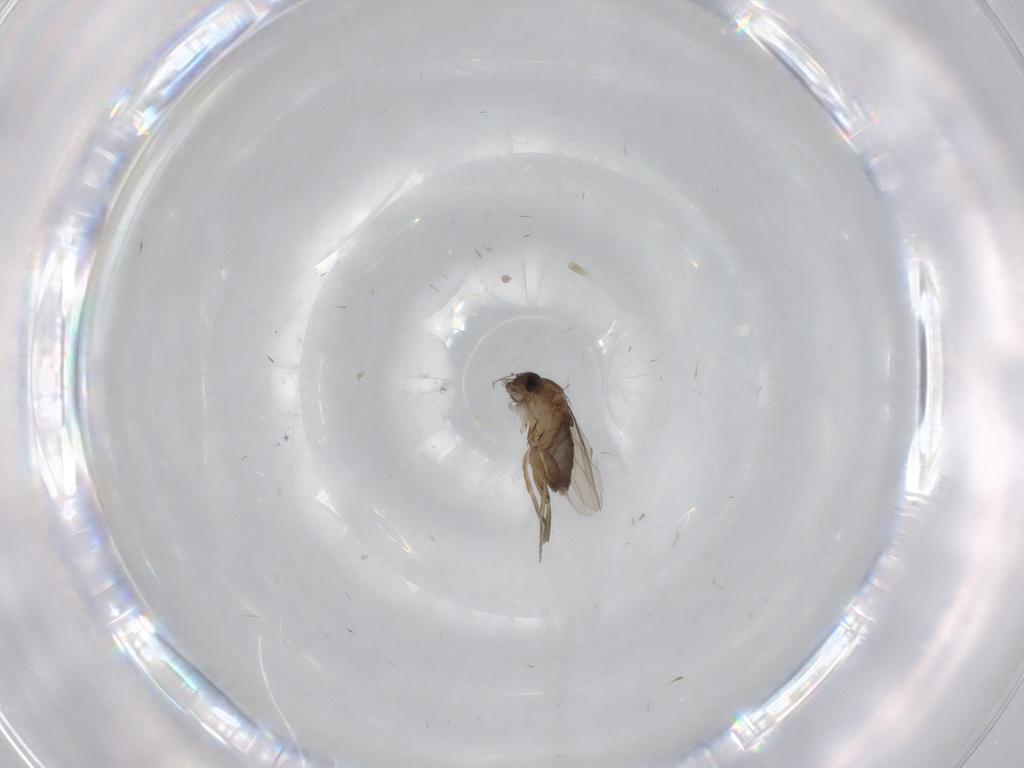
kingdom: Animalia
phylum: Arthropoda
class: Insecta
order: Diptera
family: Phoridae
